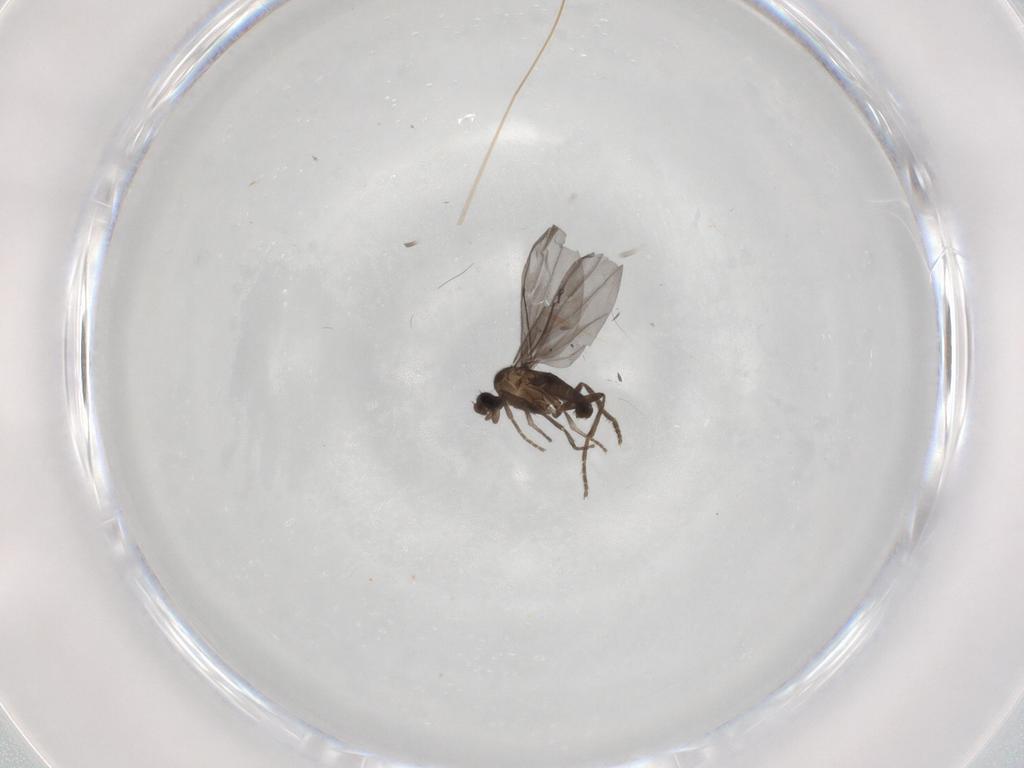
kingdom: Animalia
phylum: Arthropoda
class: Insecta
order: Diptera
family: Phoridae
